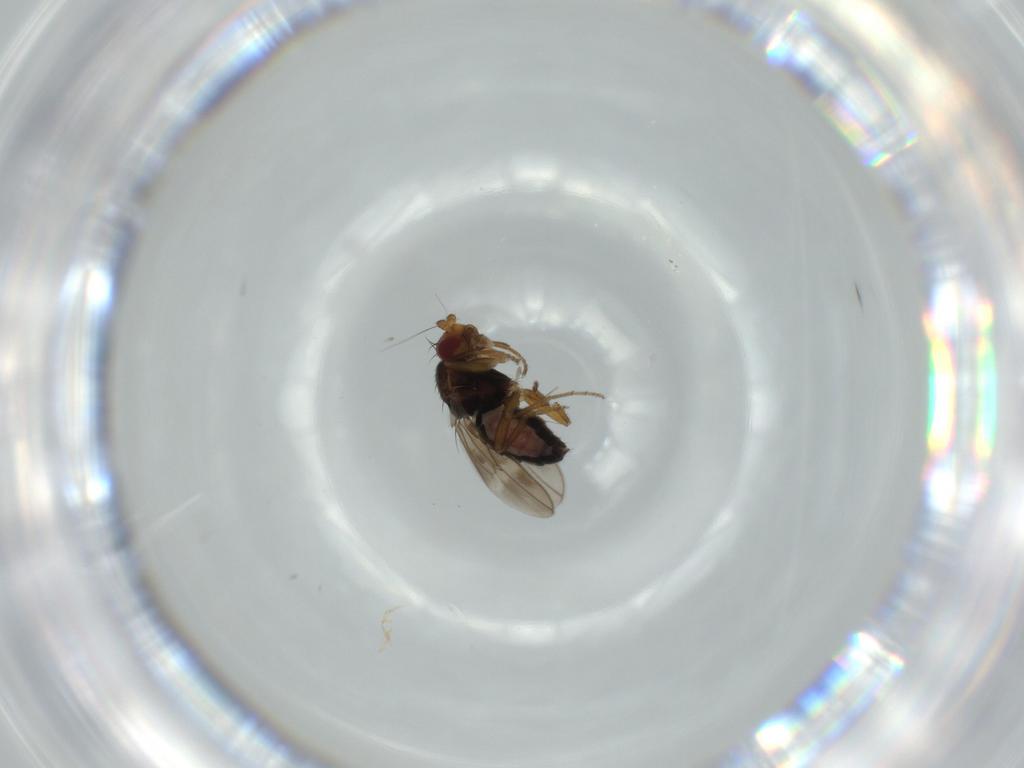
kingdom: Animalia
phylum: Arthropoda
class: Insecta
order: Diptera
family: Sphaeroceridae
